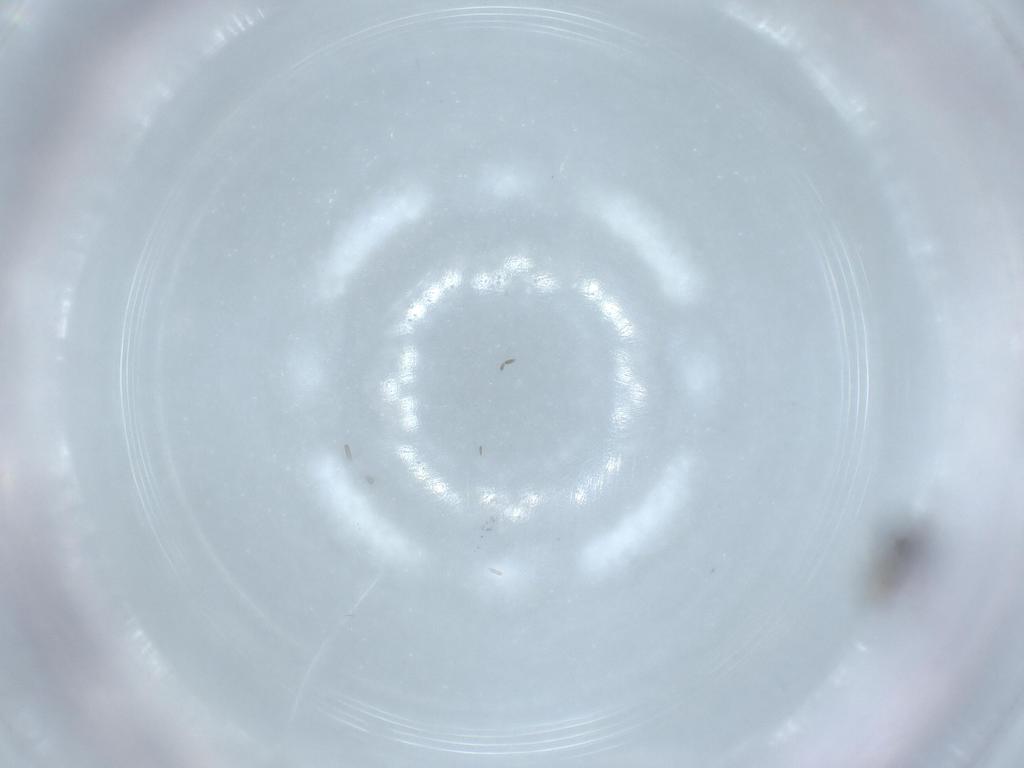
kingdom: Animalia
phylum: Arthropoda
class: Insecta
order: Hymenoptera
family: Scelionidae
